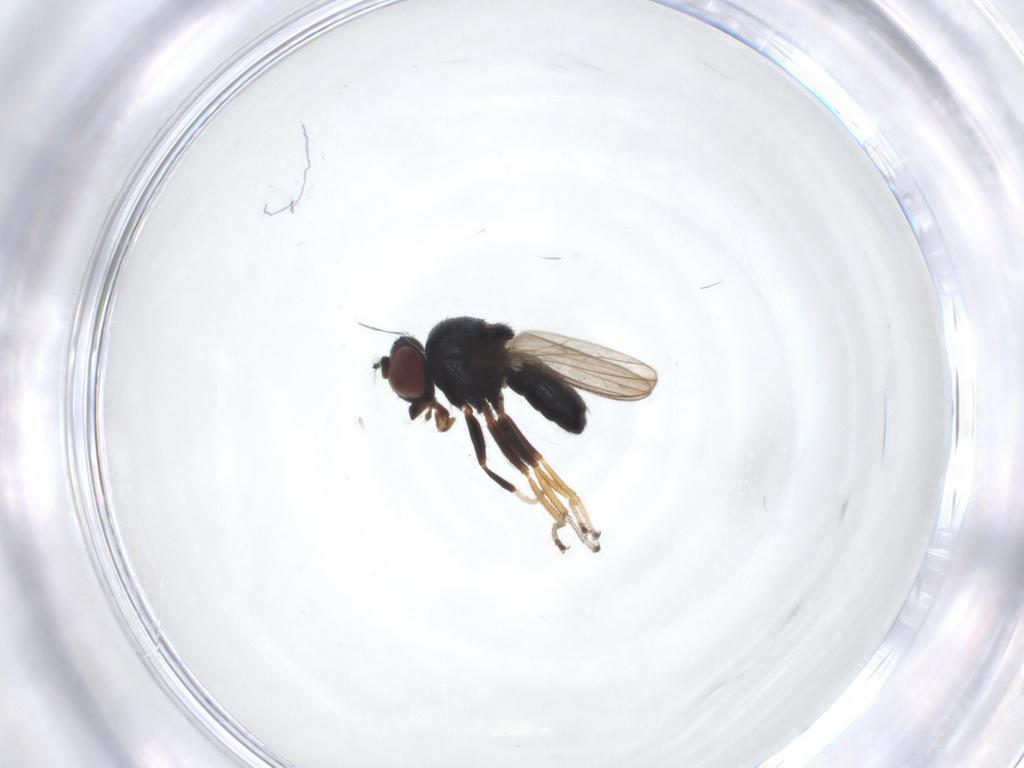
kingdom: Animalia
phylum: Arthropoda
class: Insecta
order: Diptera
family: Ephydridae
